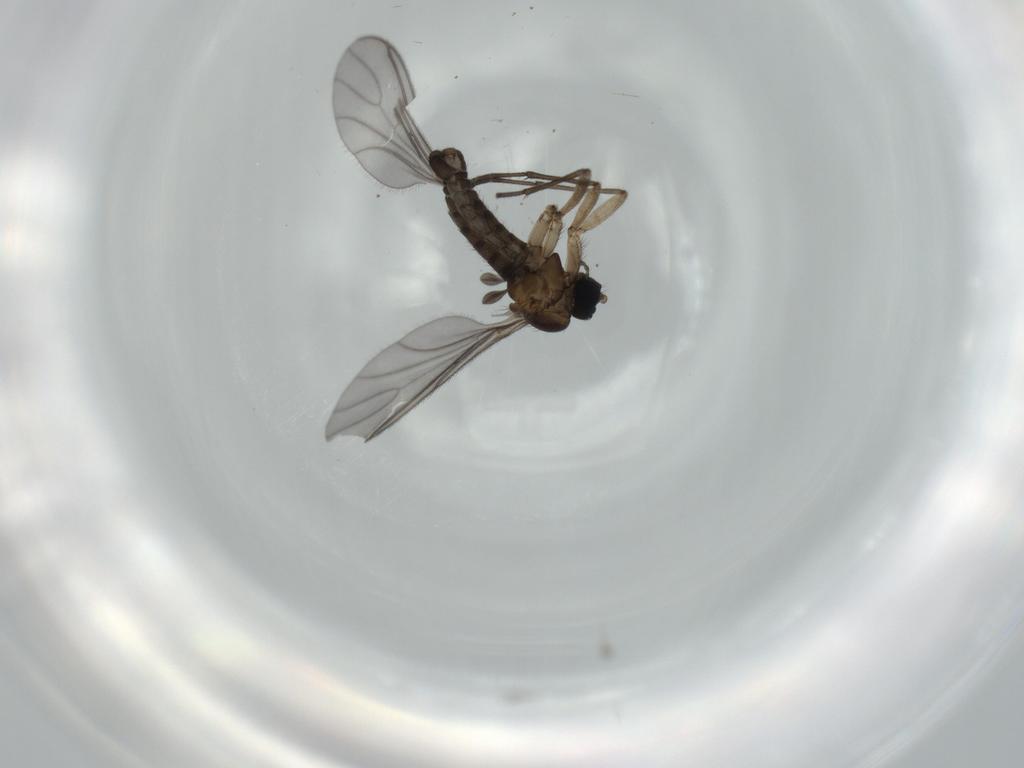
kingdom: Animalia
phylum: Arthropoda
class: Insecta
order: Diptera
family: Sciaridae
